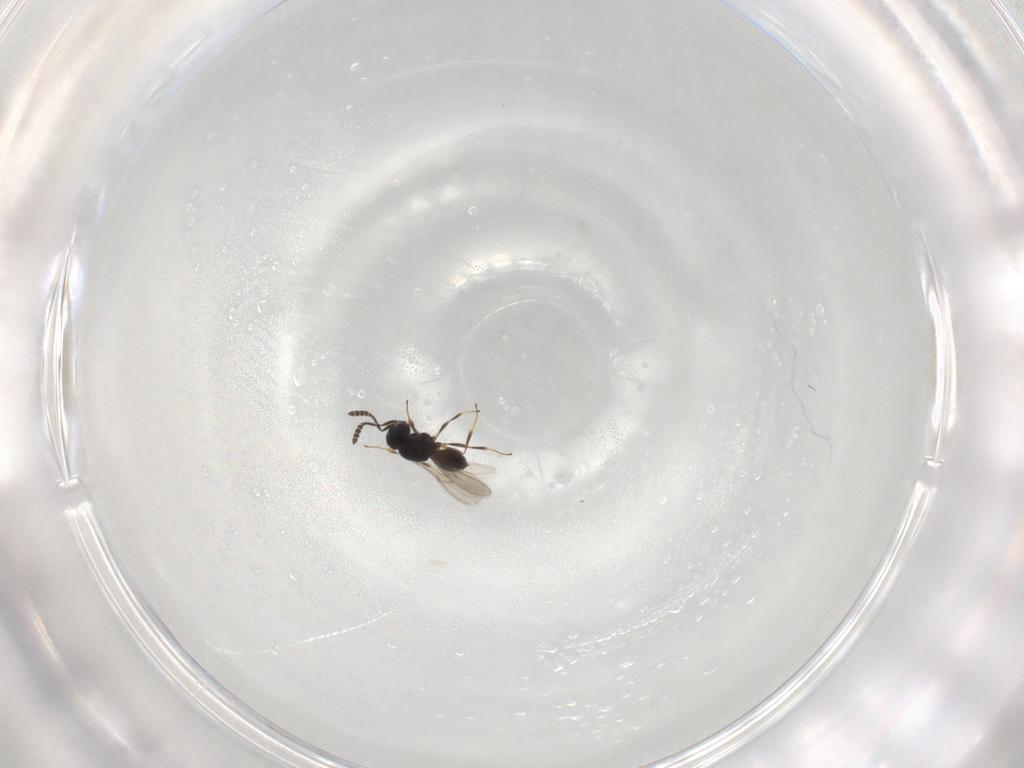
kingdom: Animalia
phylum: Arthropoda
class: Insecta
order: Hymenoptera
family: Scelionidae
